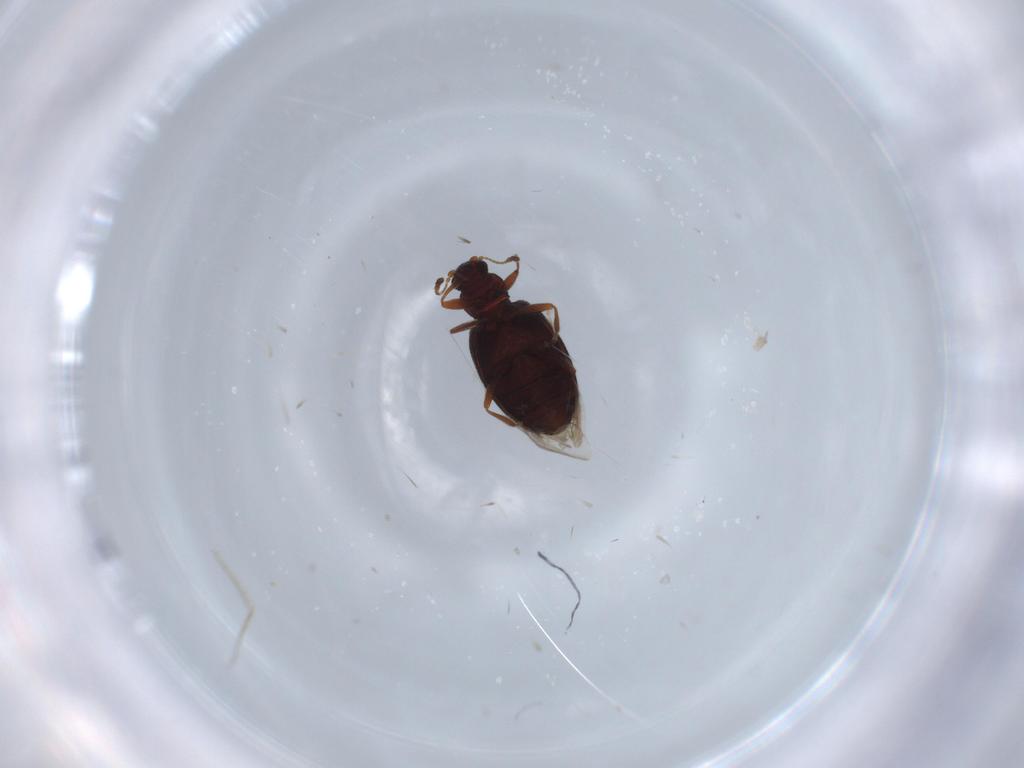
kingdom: Animalia
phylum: Arthropoda
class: Insecta
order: Coleoptera
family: Latridiidae
